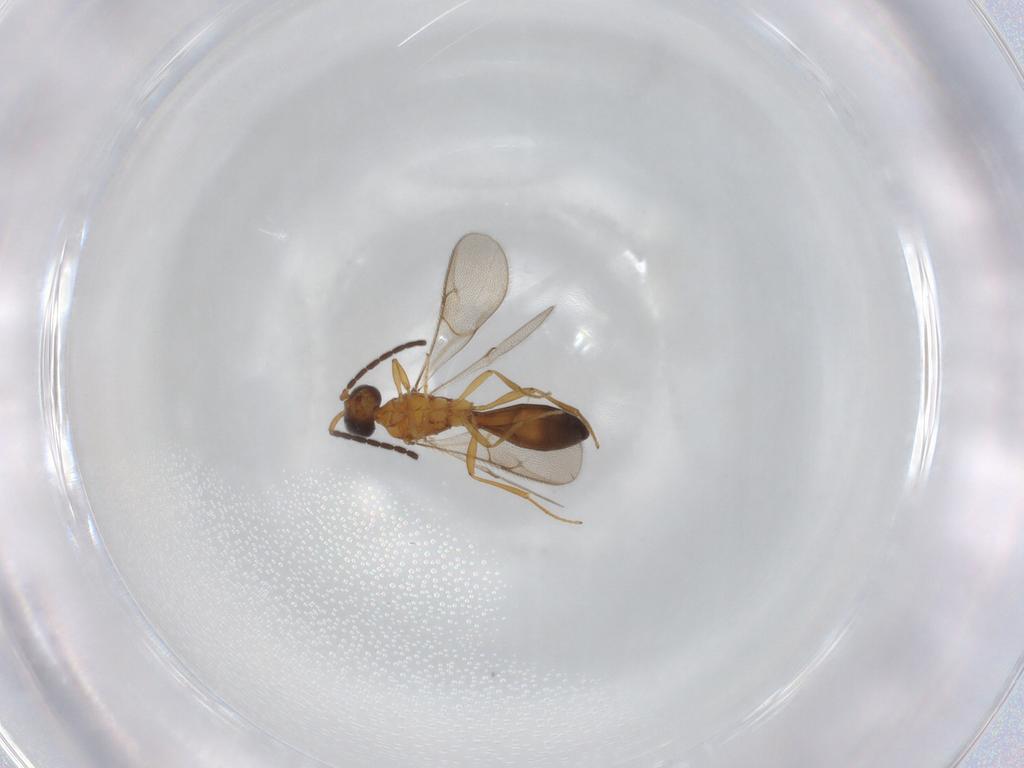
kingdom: Animalia
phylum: Arthropoda
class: Insecta
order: Hymenoptera
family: Scelionidae
